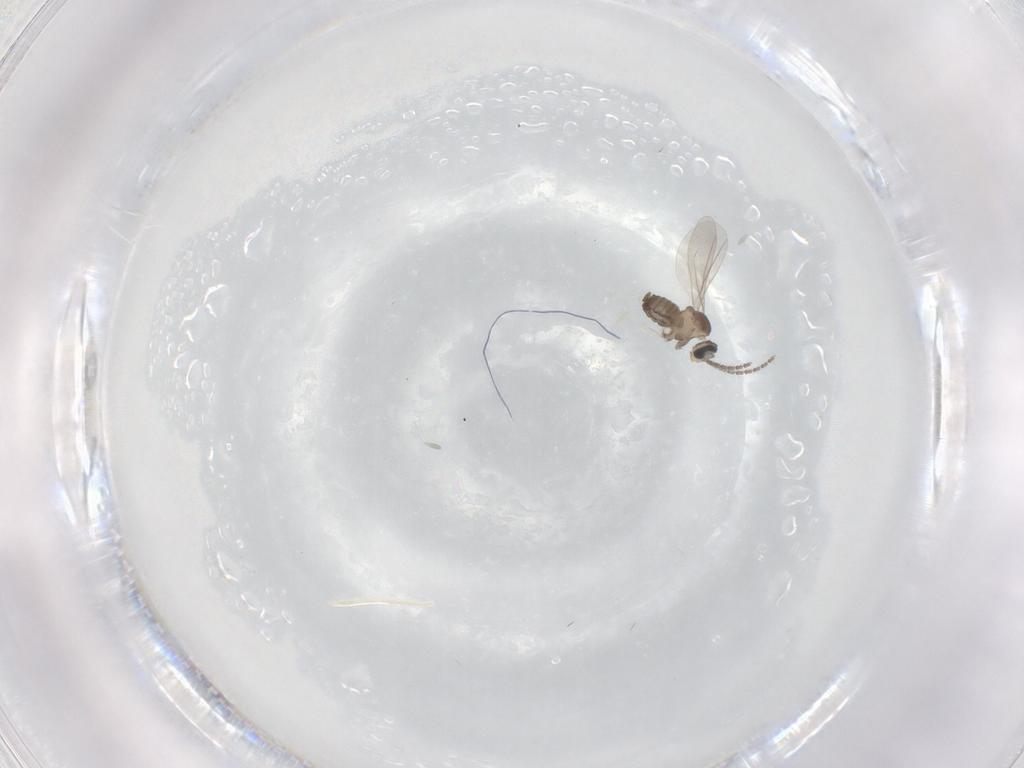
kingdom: Animalia
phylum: Arthropoda
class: Insecta
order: Diptera
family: Cecidomyiidae
